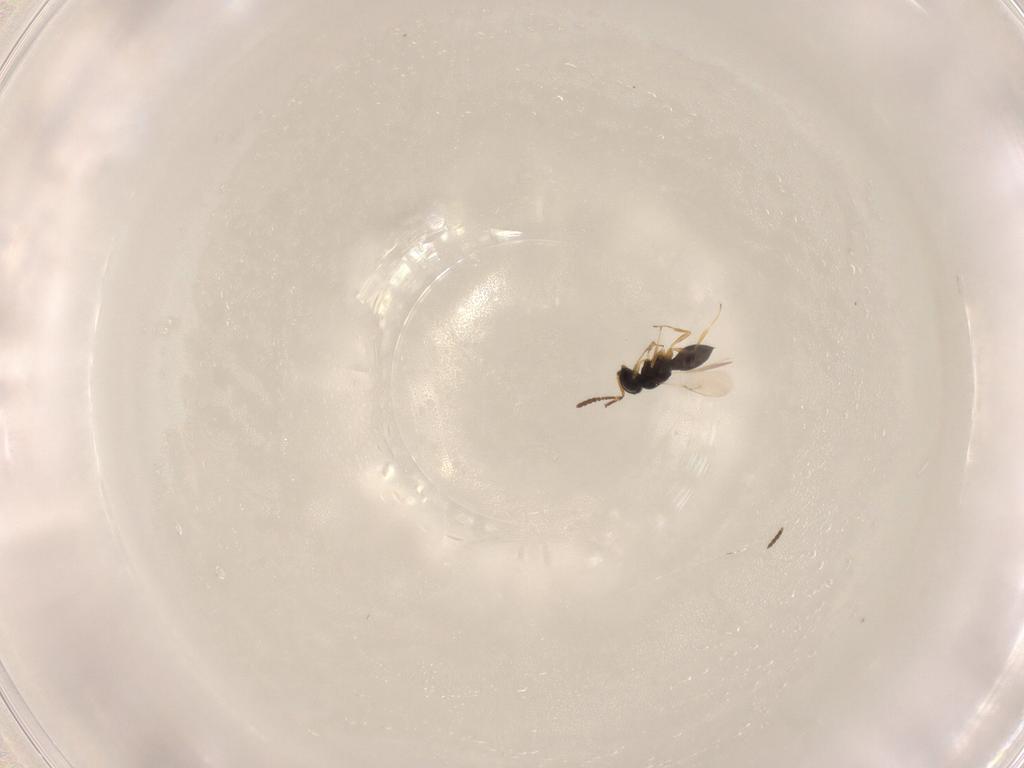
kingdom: Animalia
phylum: Arthropoda
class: Insecta
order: Hymenoptera
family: Scelionidae
